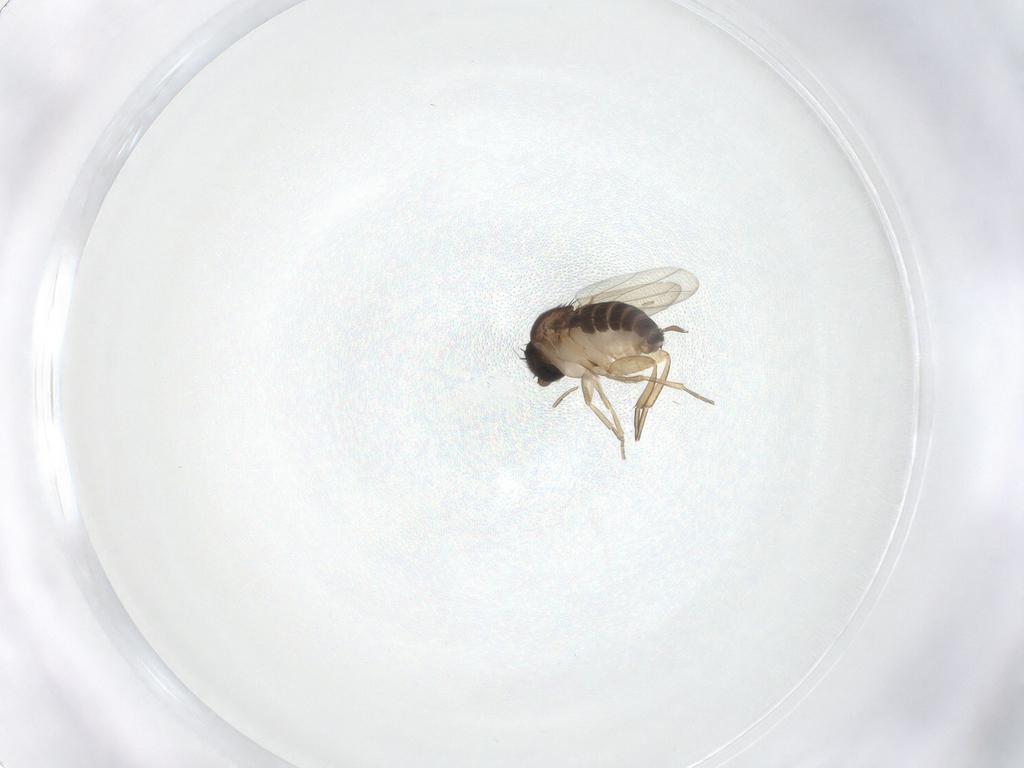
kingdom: Animalia
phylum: Arthropoda
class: Insecta
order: Diptera
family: Phoridae
